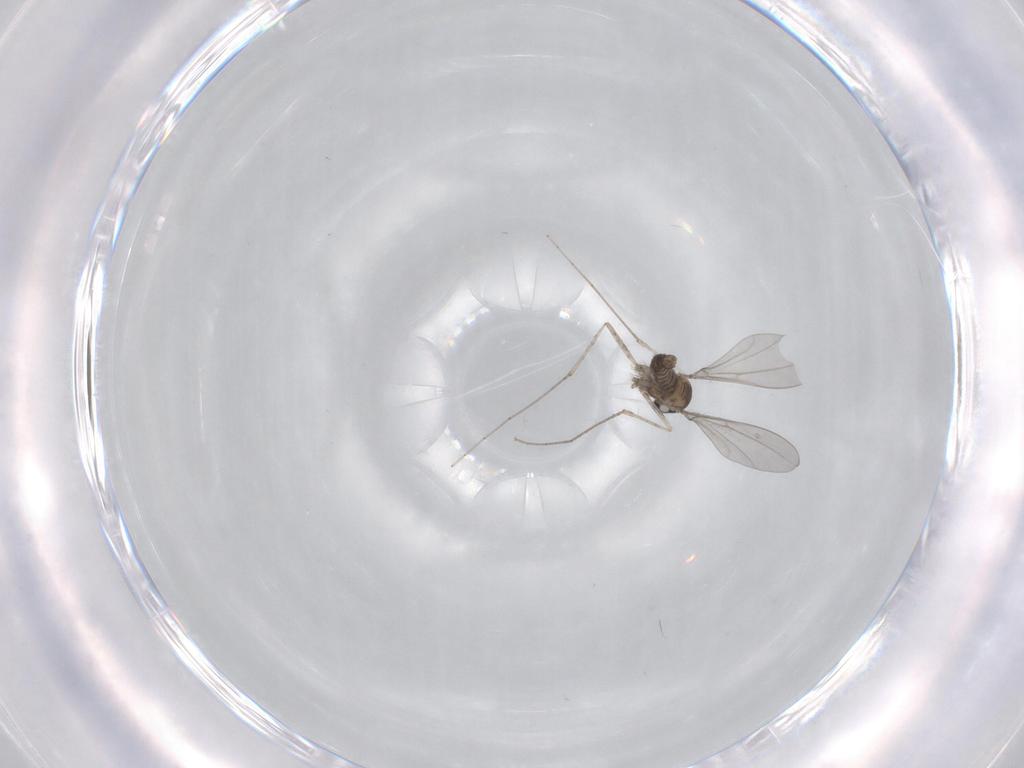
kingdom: Animalia
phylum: Arthropoda
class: Insecta
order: Diptera
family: Cecidomyiidae
